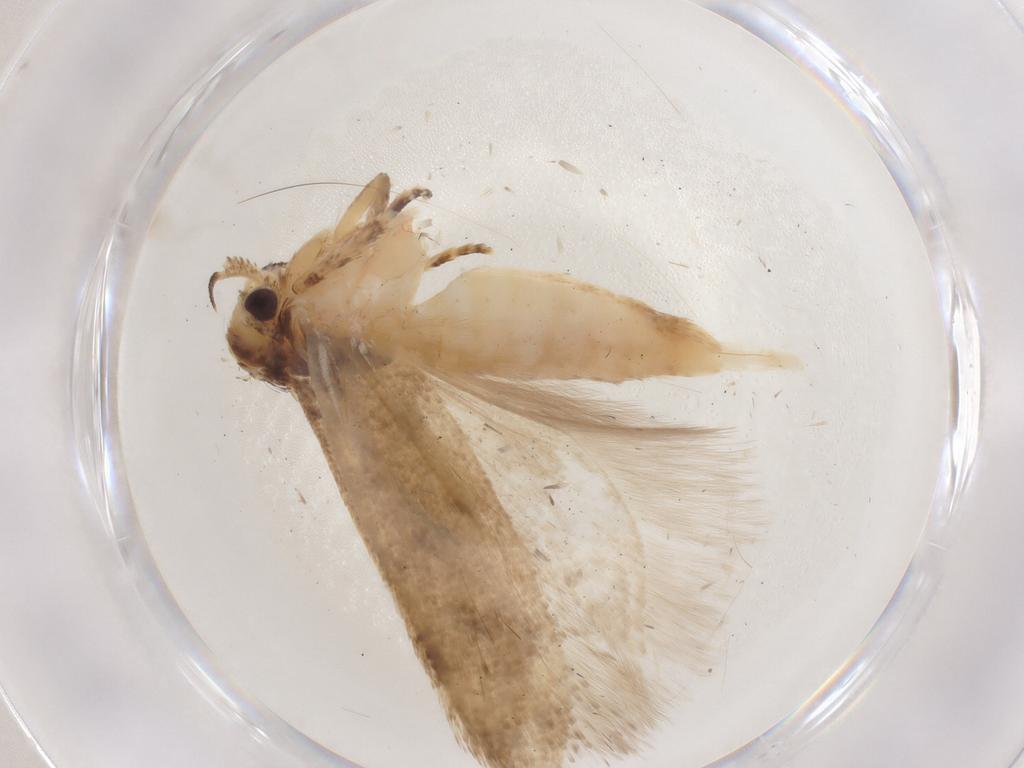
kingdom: Animalia
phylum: Arthropoda
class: Insecta
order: Lepidoptera
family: Gelechiidae
